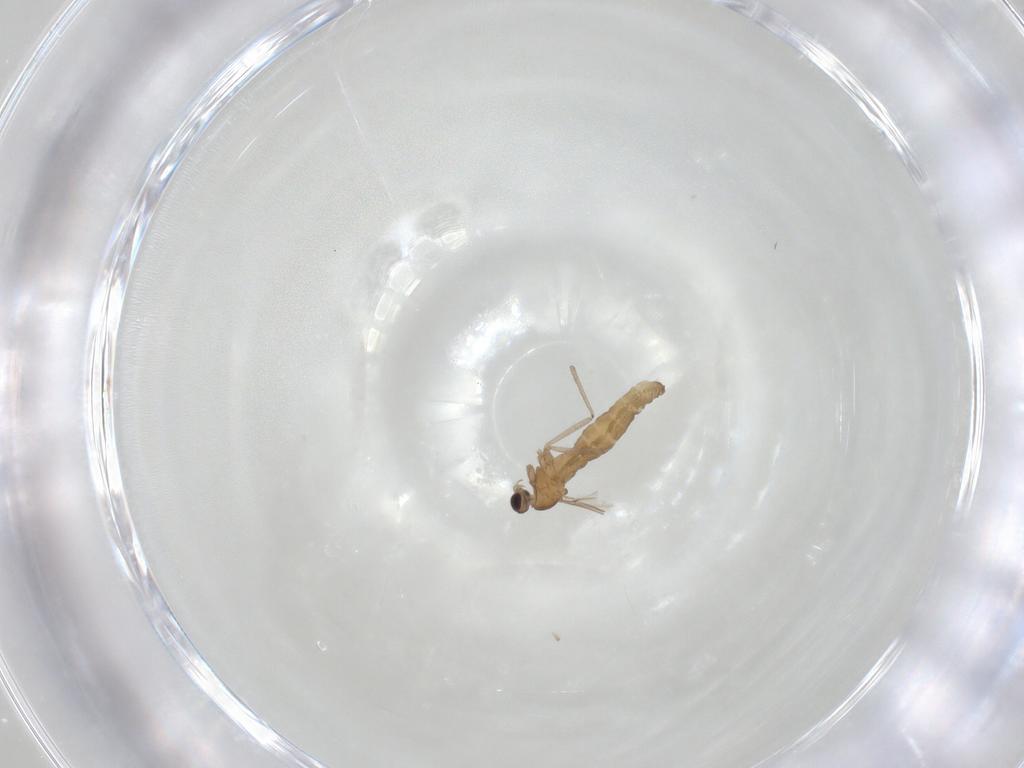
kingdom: Animalia
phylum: Arthropoda
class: Insecta
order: Diptera
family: Cecidomyiidae
